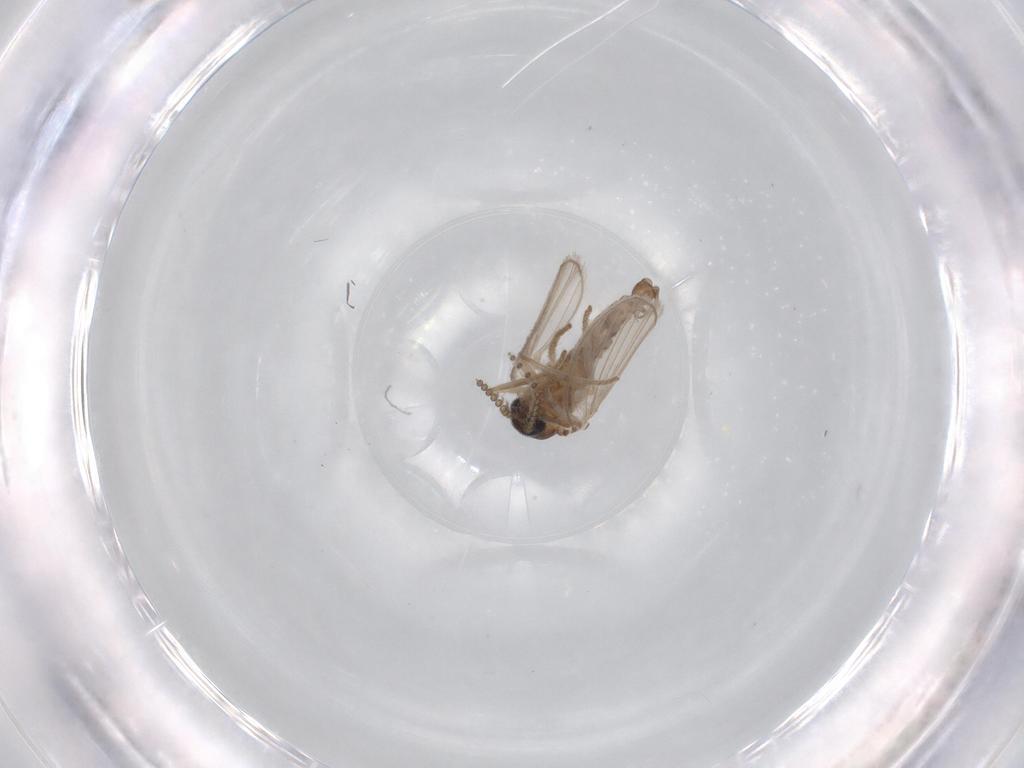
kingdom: Animalia
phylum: Arthropoda
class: Insecta
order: Diptera
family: Psychodidae
